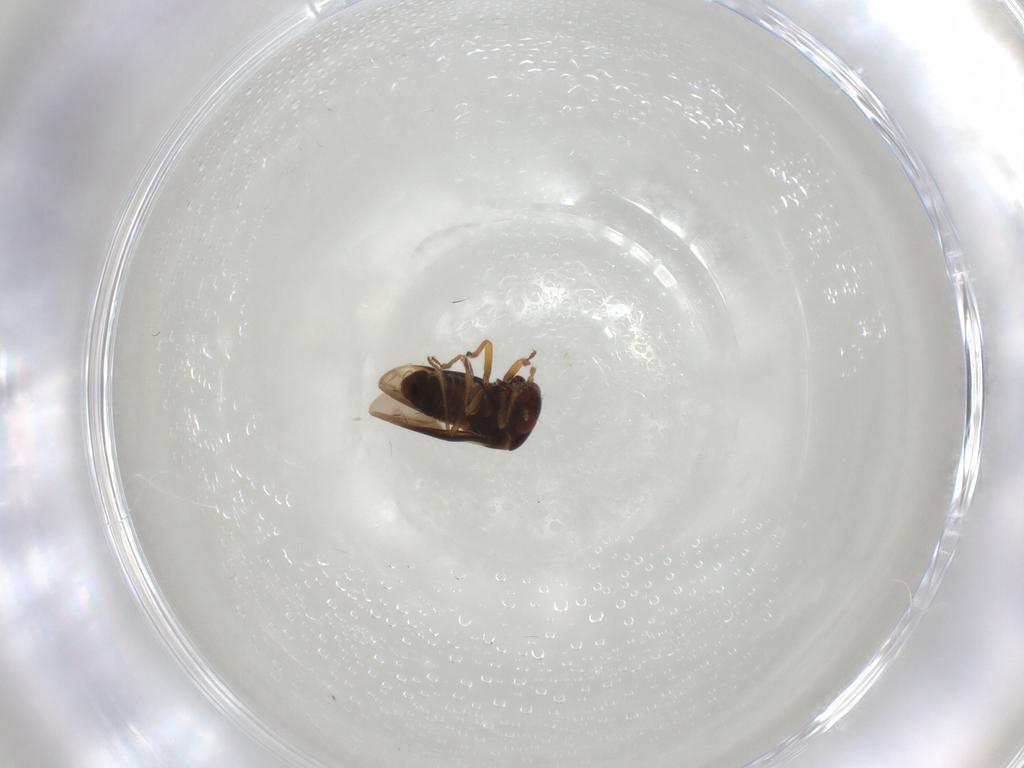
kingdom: Animalia
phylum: Arthropoda
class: Insecta
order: Hemiptera
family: Schizopteridae
